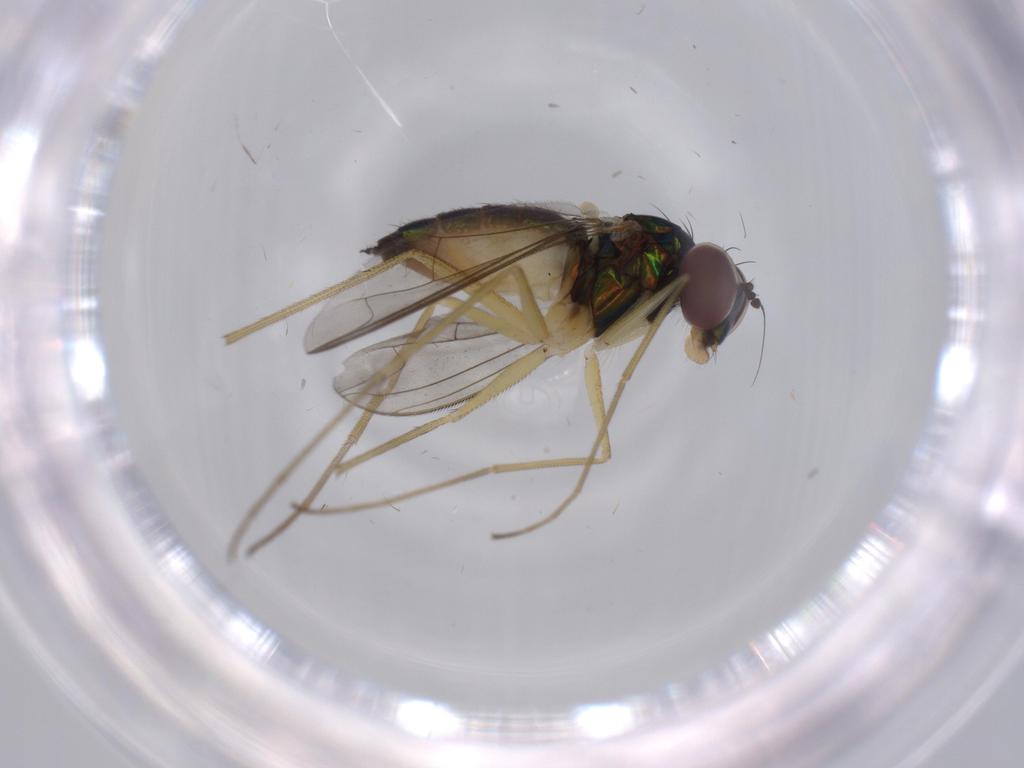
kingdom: Animalia
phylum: Arthropoda
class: Insecta
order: Diptera
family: Dolichopodidae
